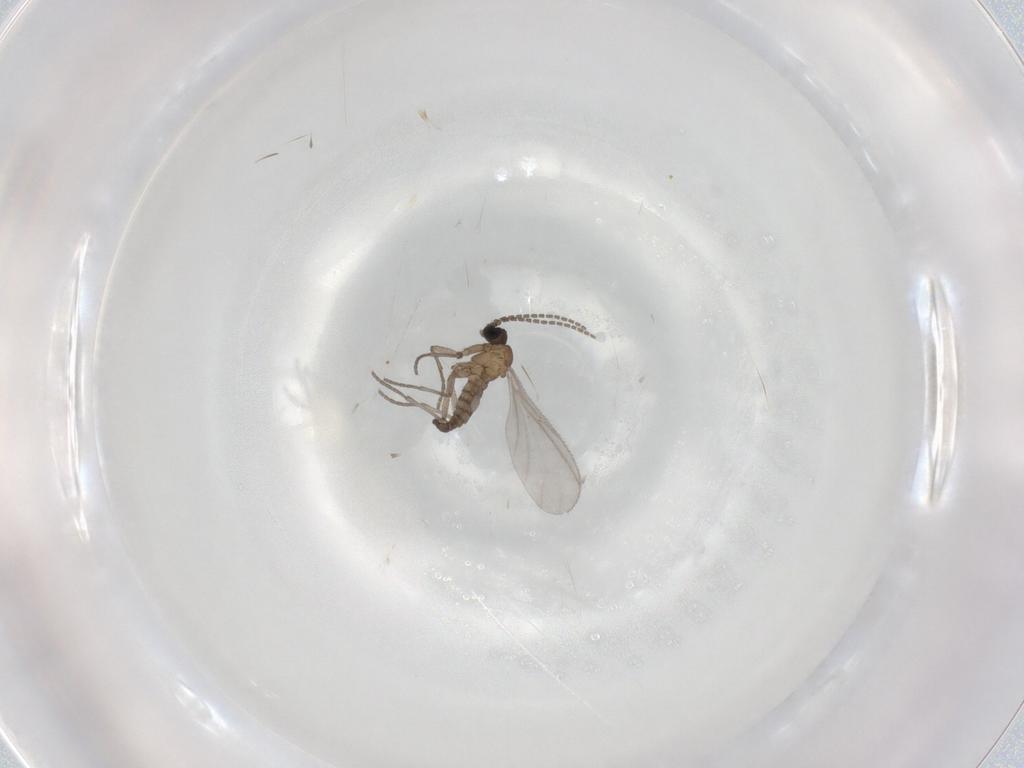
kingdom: Animalia
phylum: Arthropoda
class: Insecta
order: Diptera
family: Sciaridae
